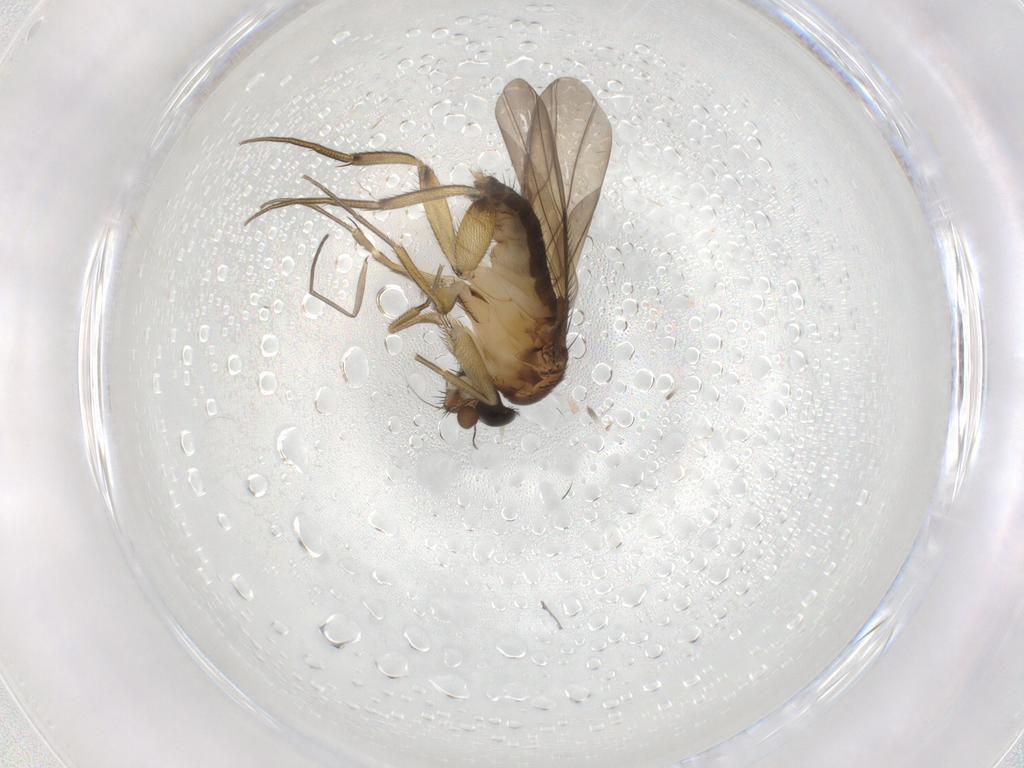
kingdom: Animalia
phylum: Arthropoda
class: Insecta
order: Diptera
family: Phoridae
